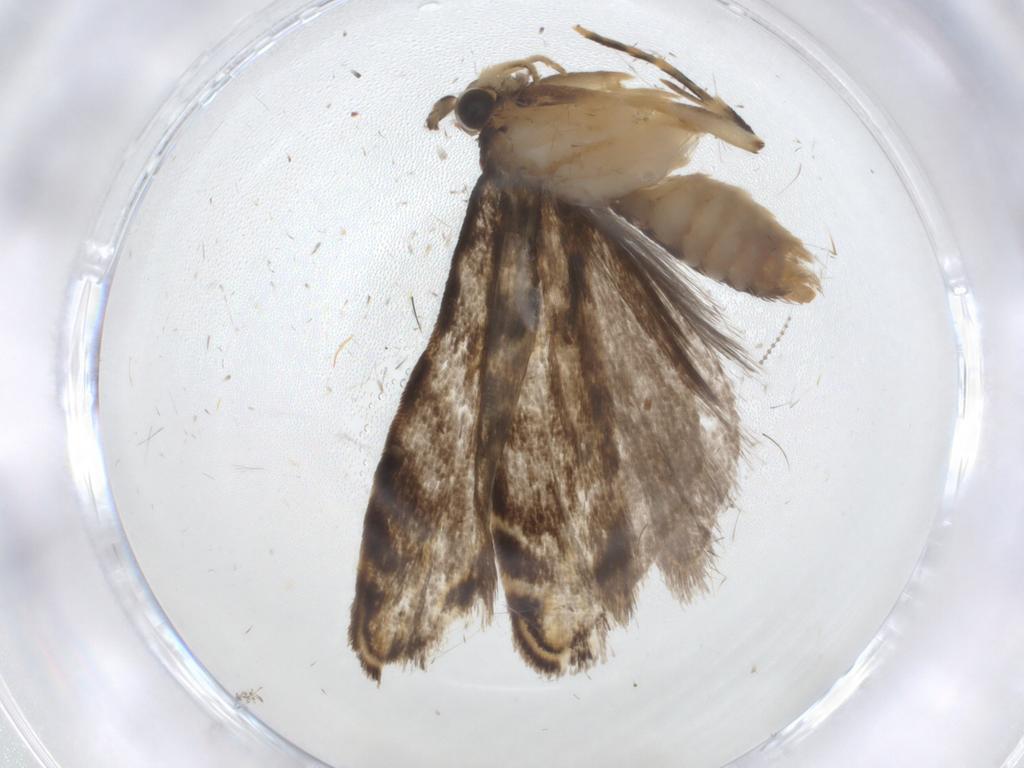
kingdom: Animalia
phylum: Arthropoda
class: Insecta
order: Lepidoptera
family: Dryadaulidae
